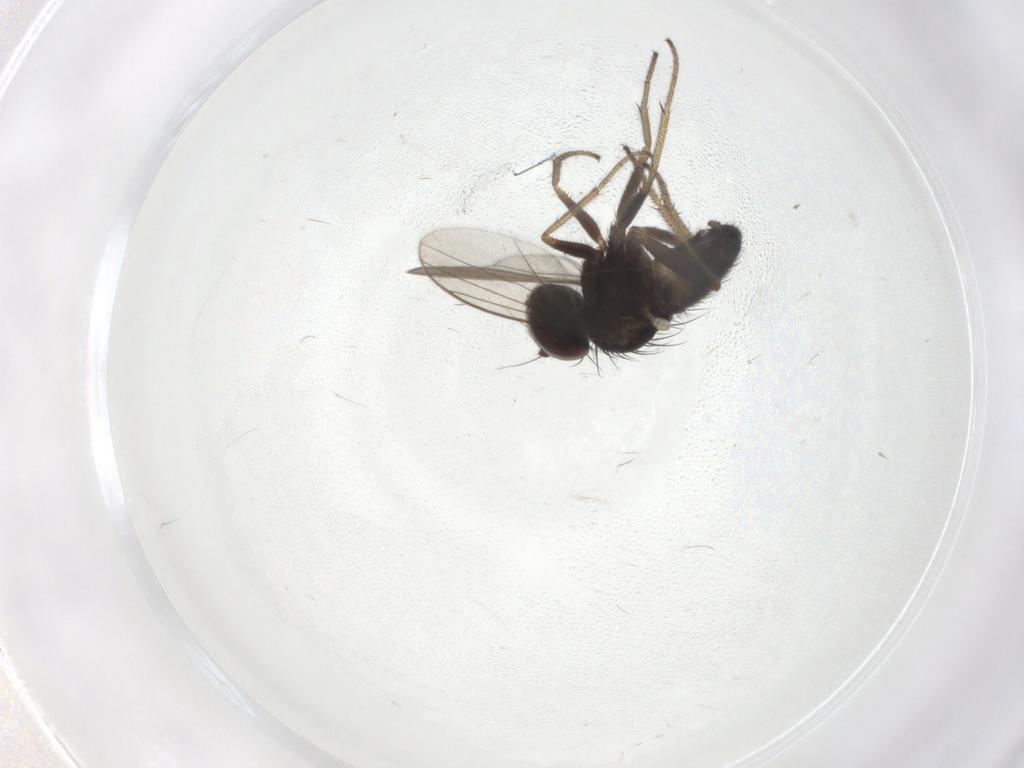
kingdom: Animalia
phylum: Arthropoda
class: Insecta
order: Diptera
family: Dolichopodidae
